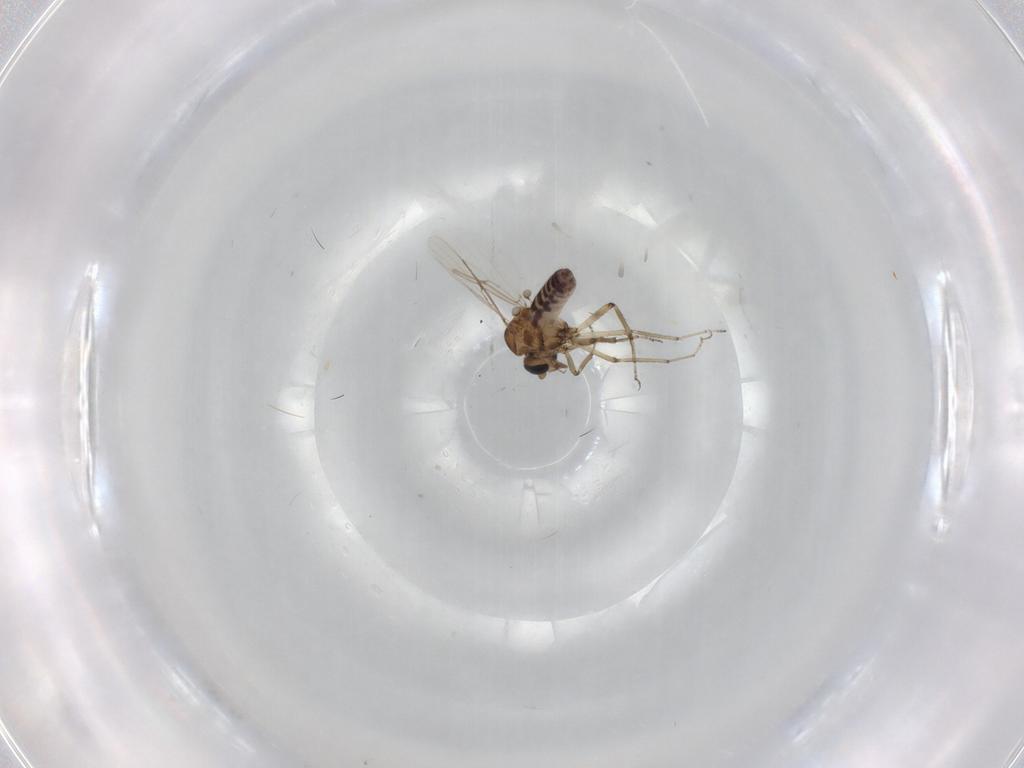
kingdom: Animalia
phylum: Arthropoda
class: Insecta
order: Diptera
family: Ceratopogonidae
